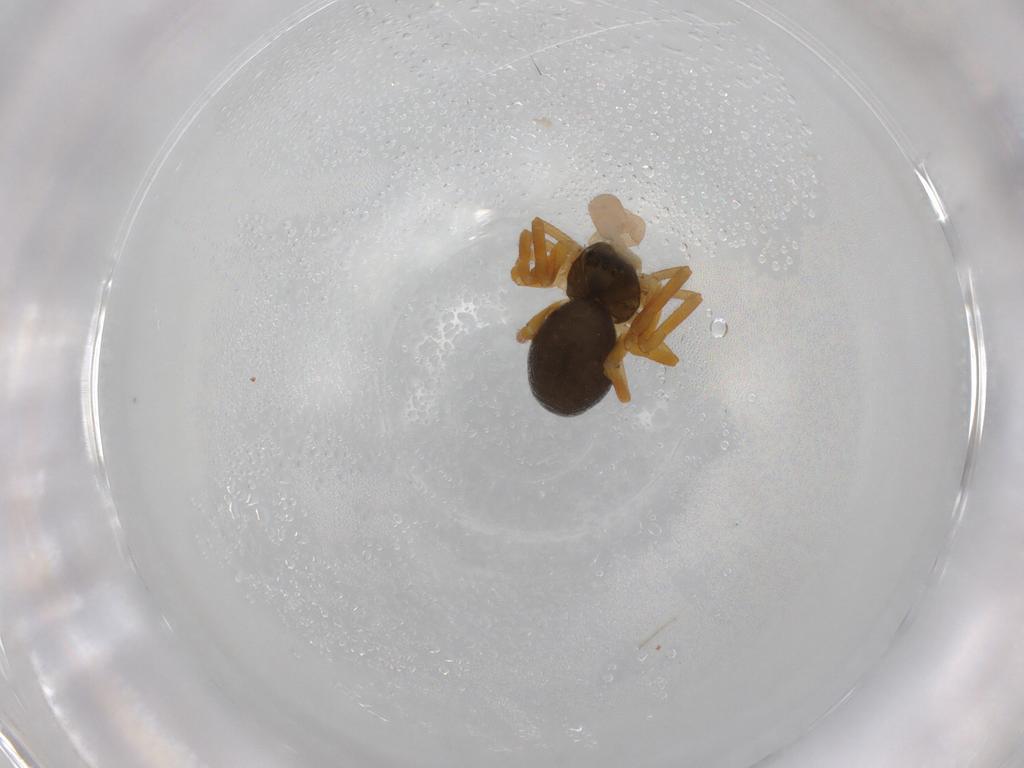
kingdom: Animalia
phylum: Arthropoda
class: Arachnida
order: Araneae
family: Linyphiidae
